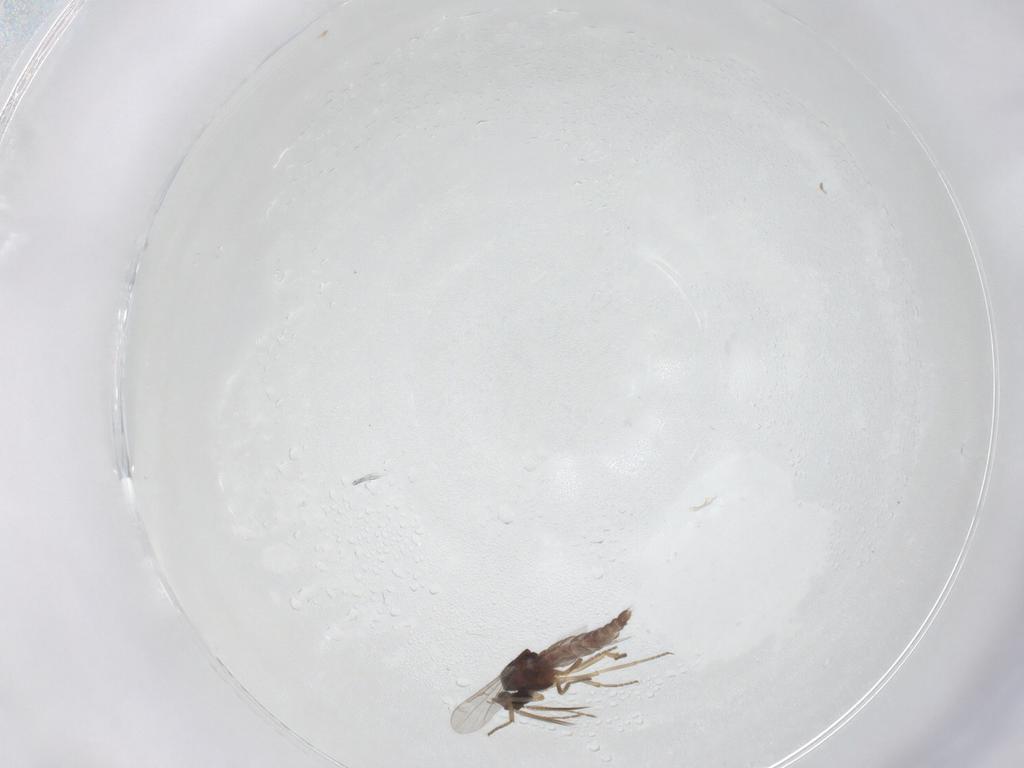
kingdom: Animalia
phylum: Arthropoda
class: Insecta
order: Diptera
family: Ceratopogonidae
